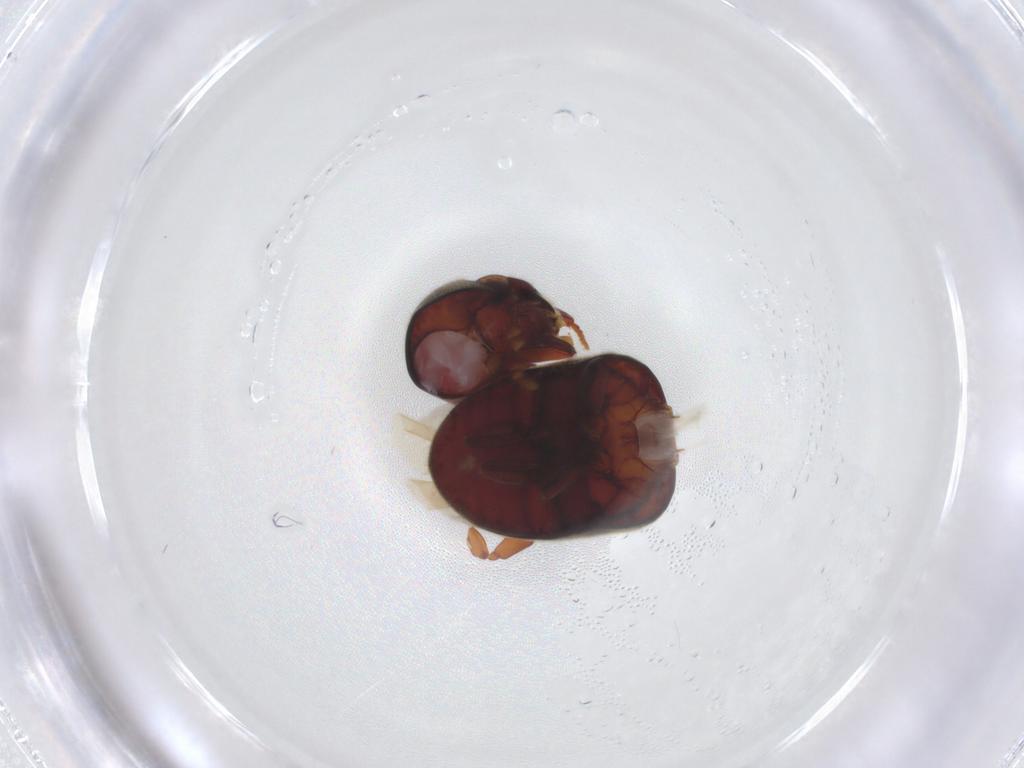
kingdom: Animalia
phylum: Arthropoda
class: Insecta
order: Coleoptera
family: Ptinidae
